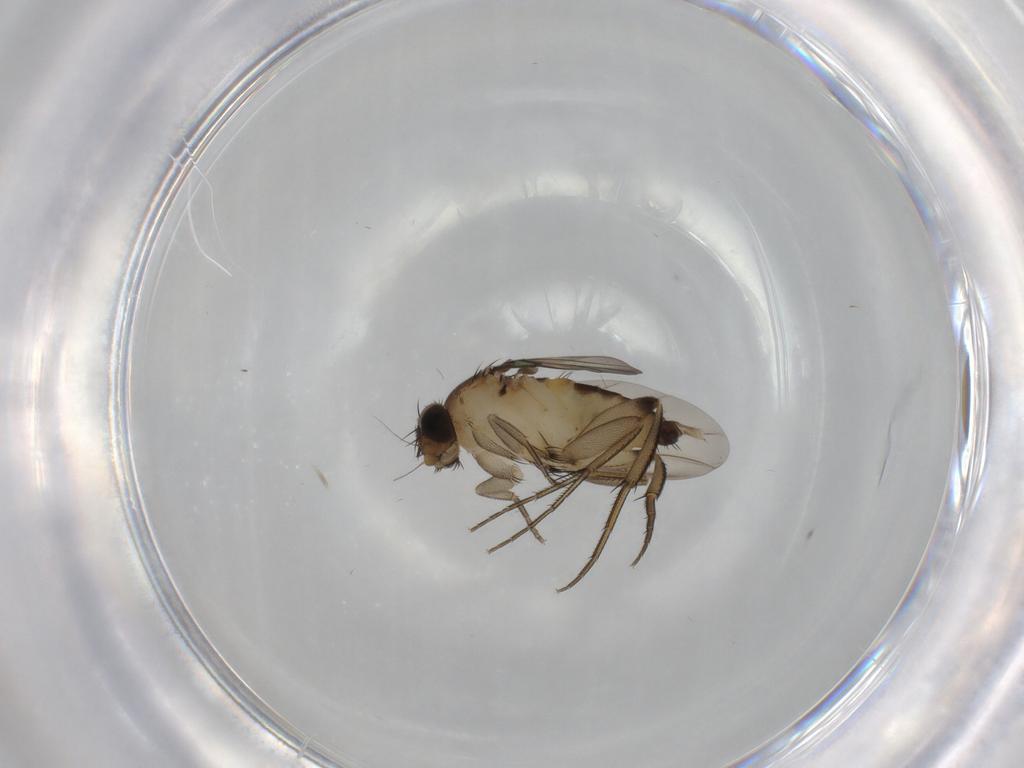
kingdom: Animalia
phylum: Arthropoda
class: Insecta
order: Diptera
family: Phoridae
